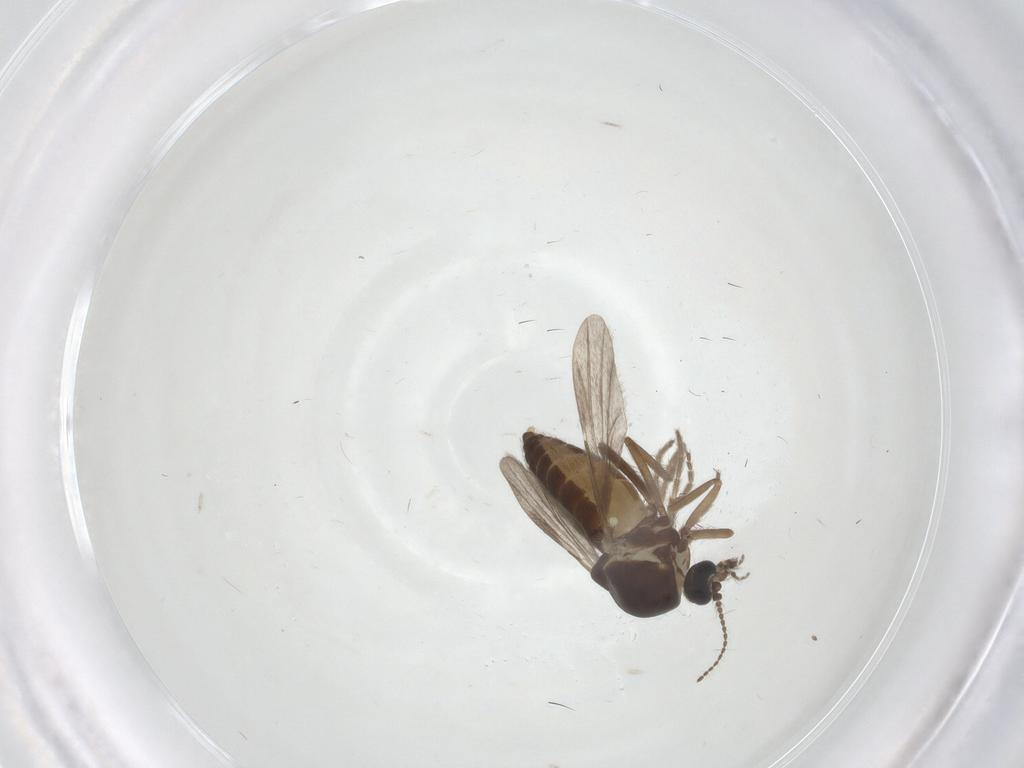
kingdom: Animalia
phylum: Arthropoda
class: Insecta
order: Diptera
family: Ceratopogonidae
